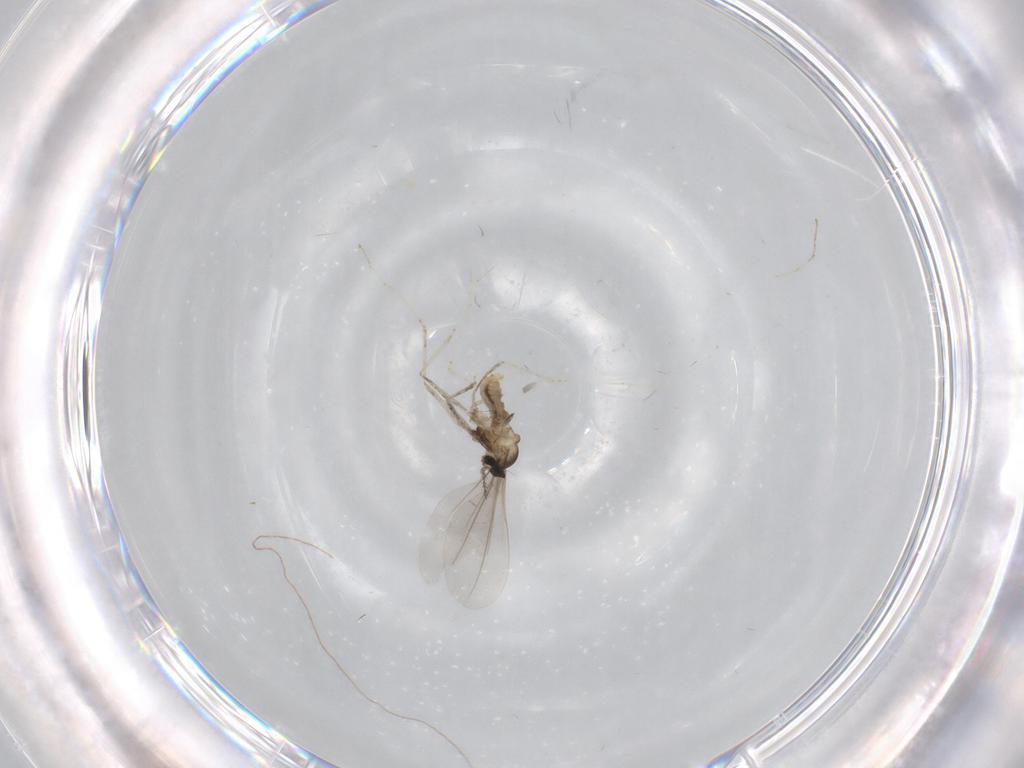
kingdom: Animalia
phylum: Arthropoda
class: Insecta
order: Diptera
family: Cecidomyiidae
